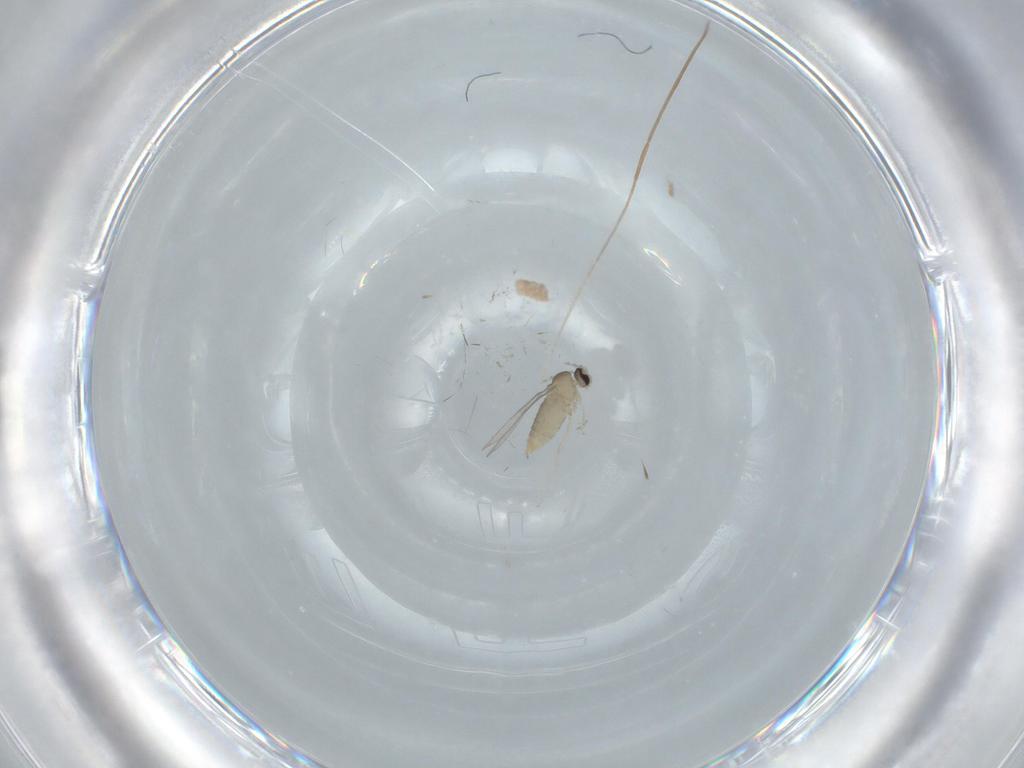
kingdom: Animalia
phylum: Arthropoda
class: Insecta
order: Diptera
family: Cecidomyiidae
